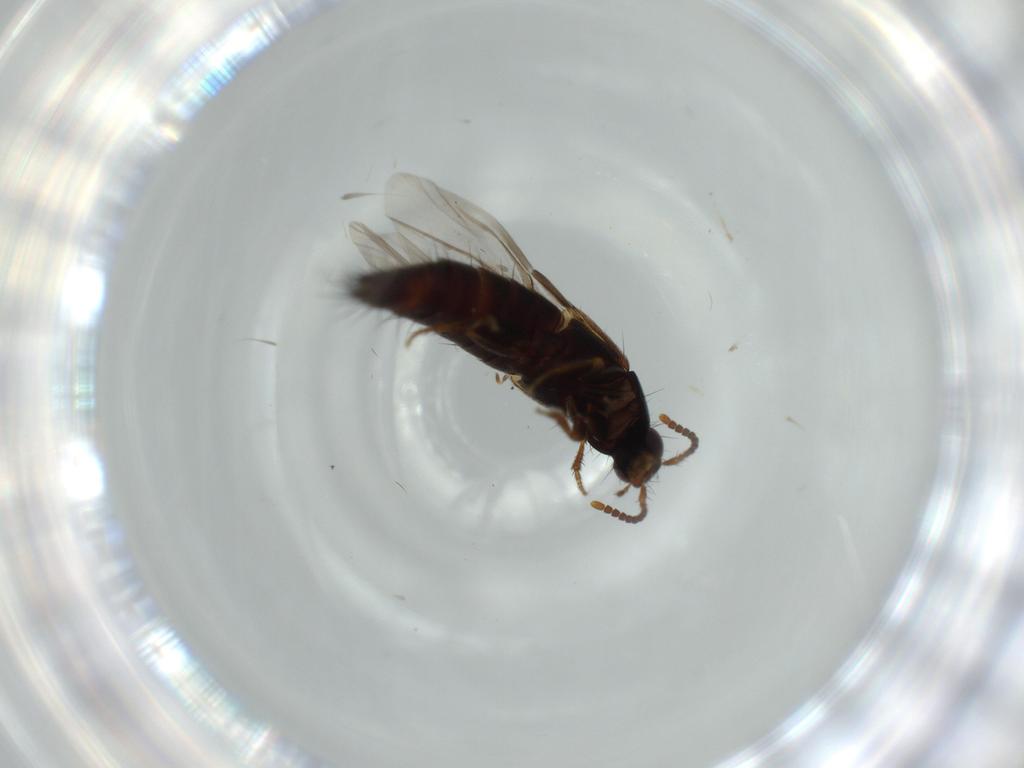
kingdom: Animalia
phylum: Arthropoda
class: Insecta
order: Coleoptera
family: Staphylinidae
